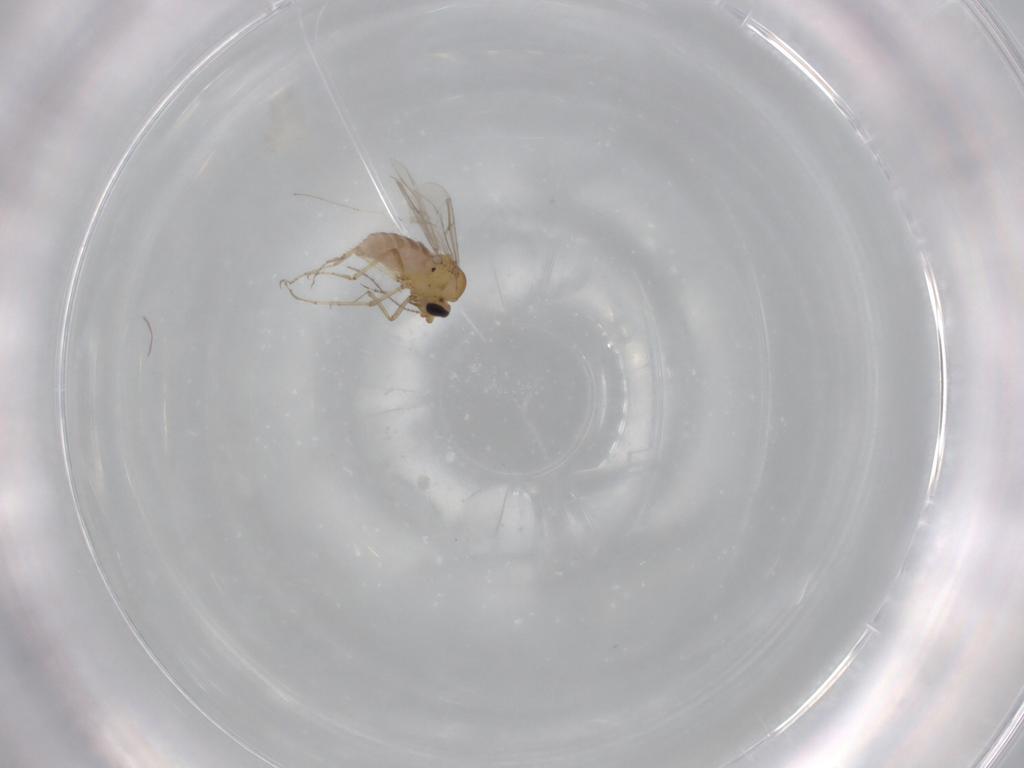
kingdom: Animalia
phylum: Arthropoda
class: Insecta
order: Diptera
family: Ceratopogonidae
